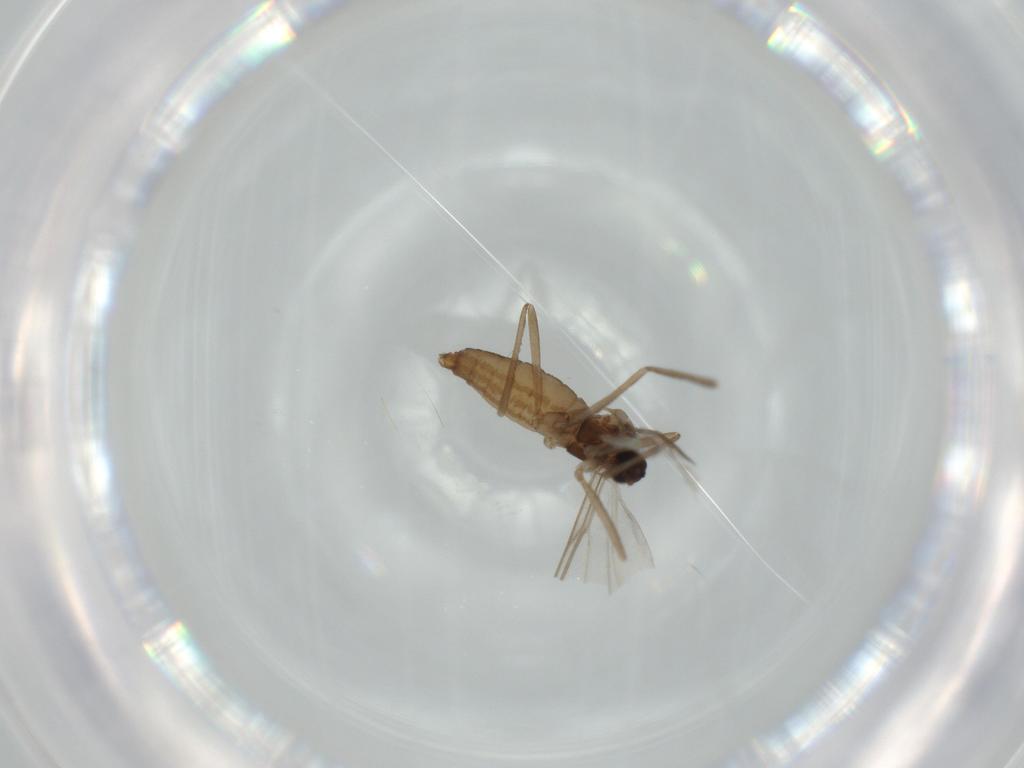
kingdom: Animalia
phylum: Arthropoda
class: Insecta
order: Diptera
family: Cecidomyiidae
